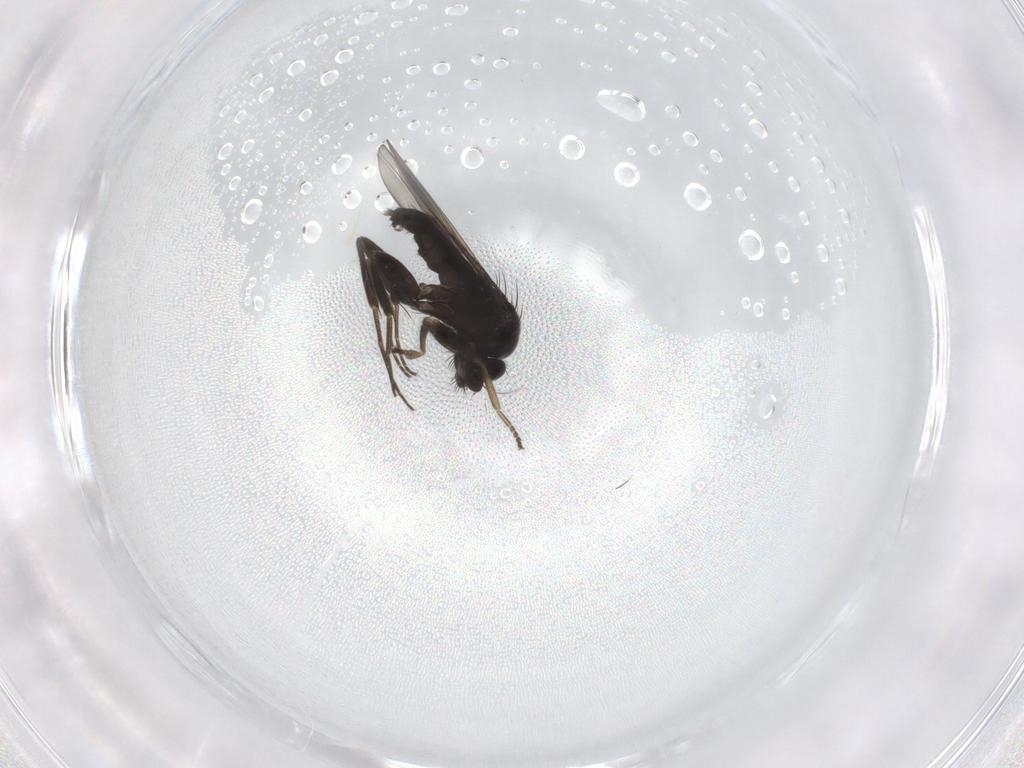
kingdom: Animalia
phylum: Arthropoda
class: Insecta
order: Diptera
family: Phoridae
